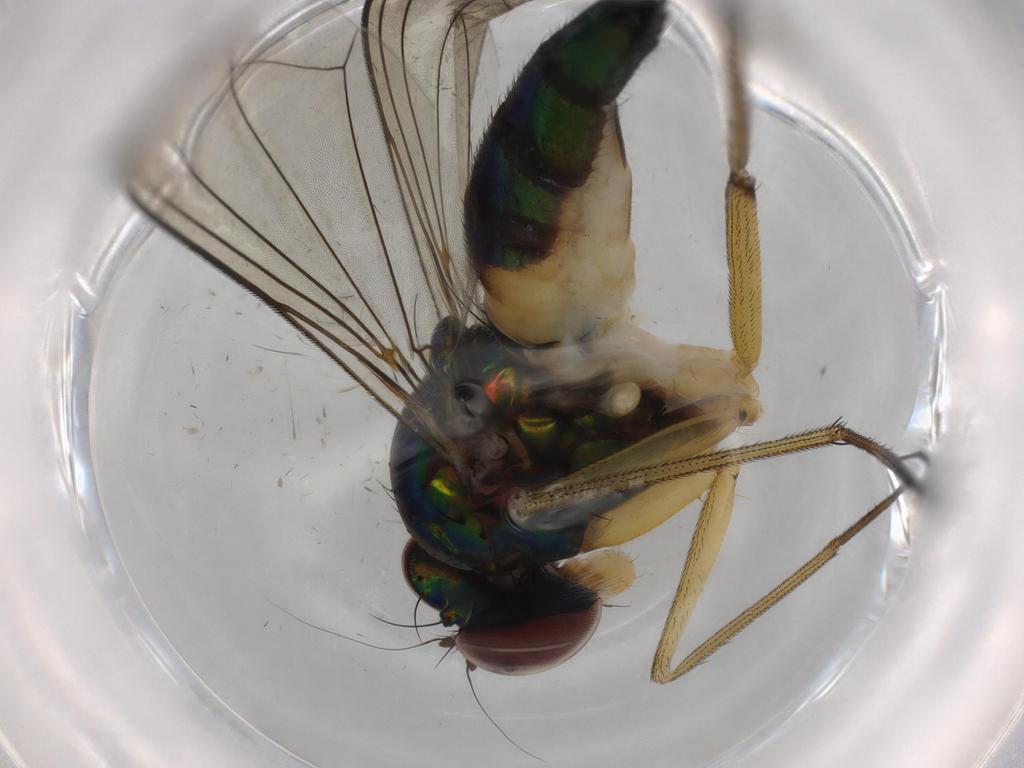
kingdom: Animalia
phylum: Arthropoda
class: Insecta
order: Diptera
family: Dolichopodidae
